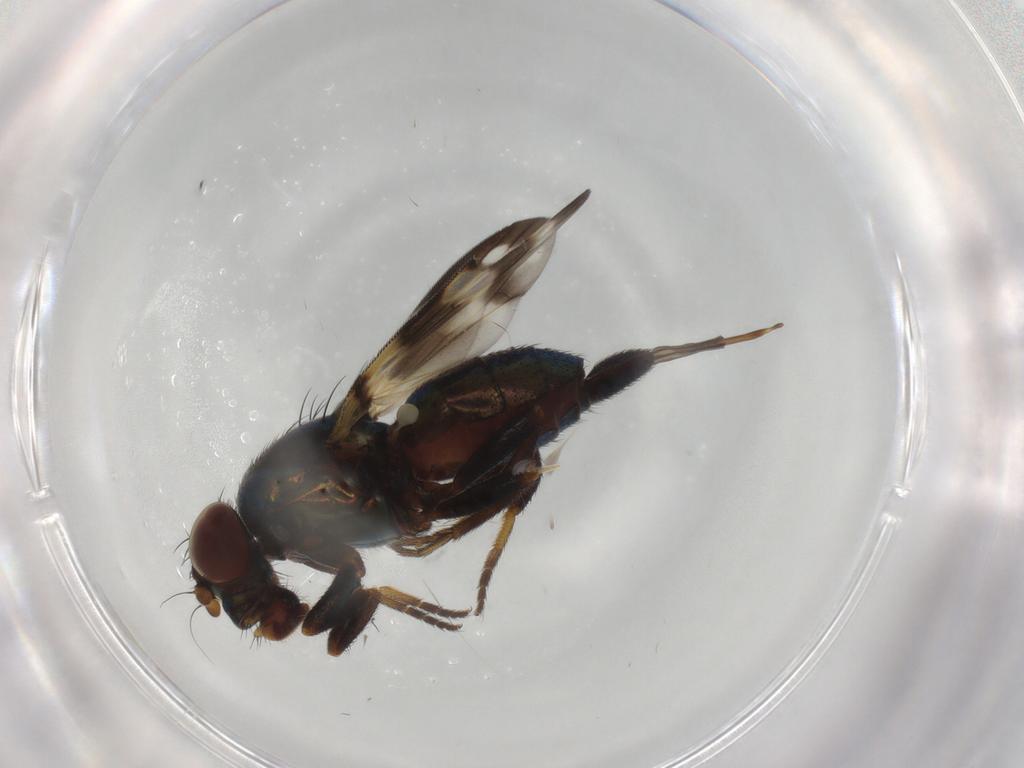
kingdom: Animalia
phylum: Arthropoda
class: Insecta
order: Diptera
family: Ulidiidae
